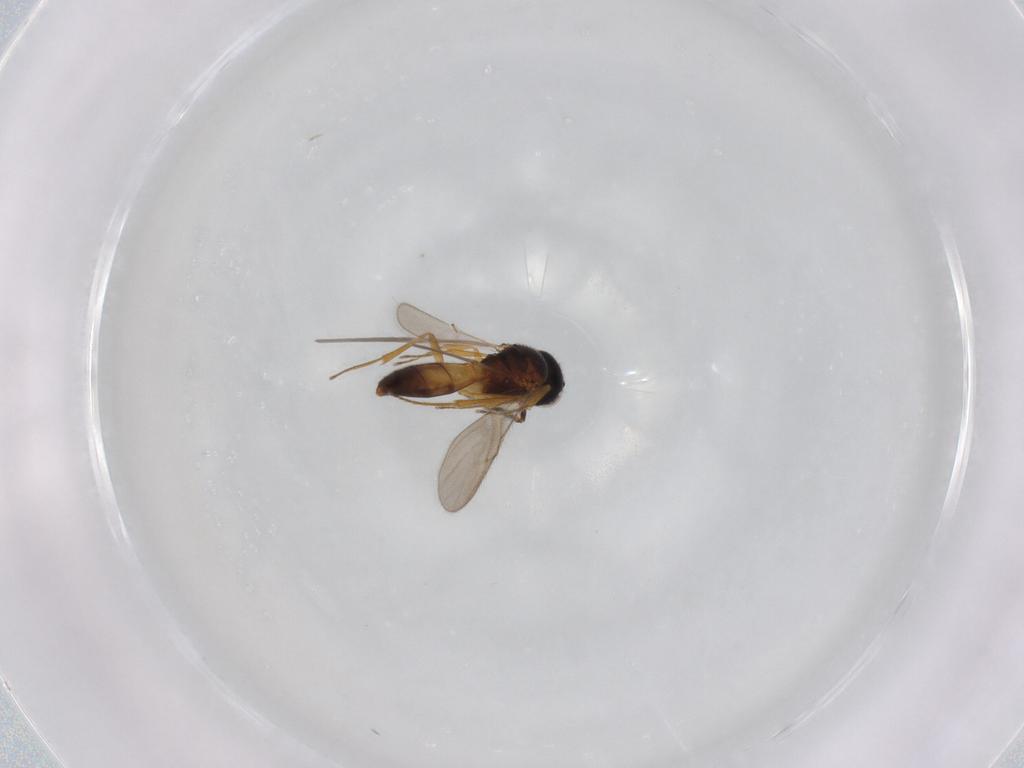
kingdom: Animalia
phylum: Arthropoda
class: Insecta
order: Hymenoptera
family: Scelionidae
